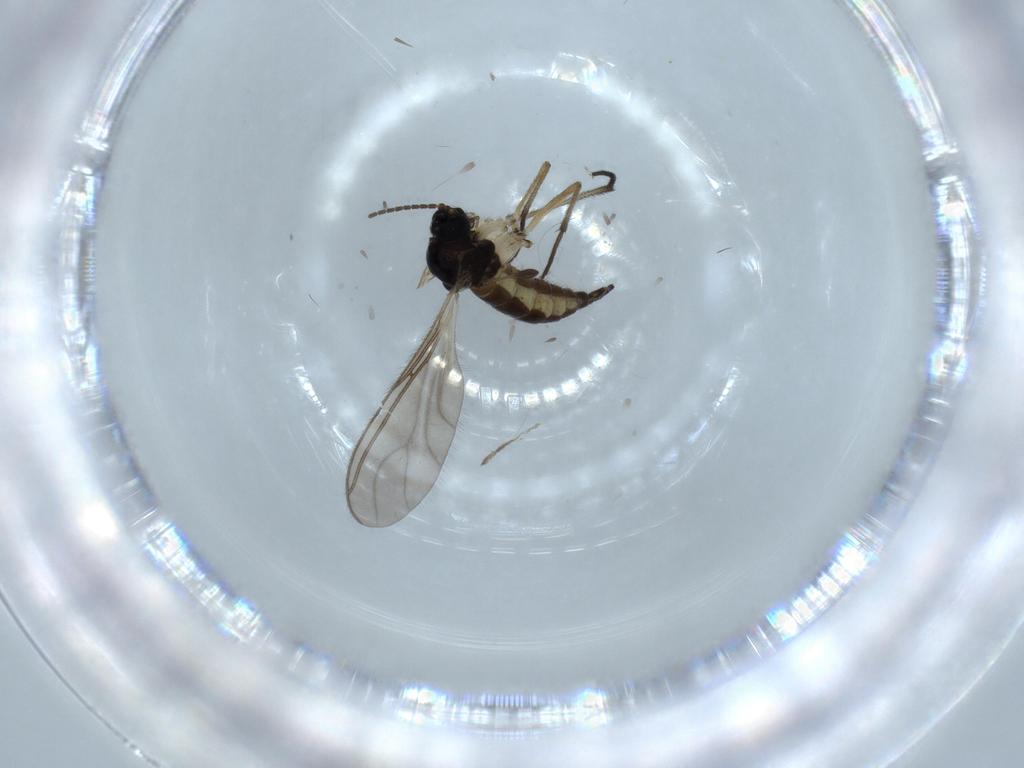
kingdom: Animalia
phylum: Arthropoda
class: Insecta
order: Diptera
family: Sciaridae
